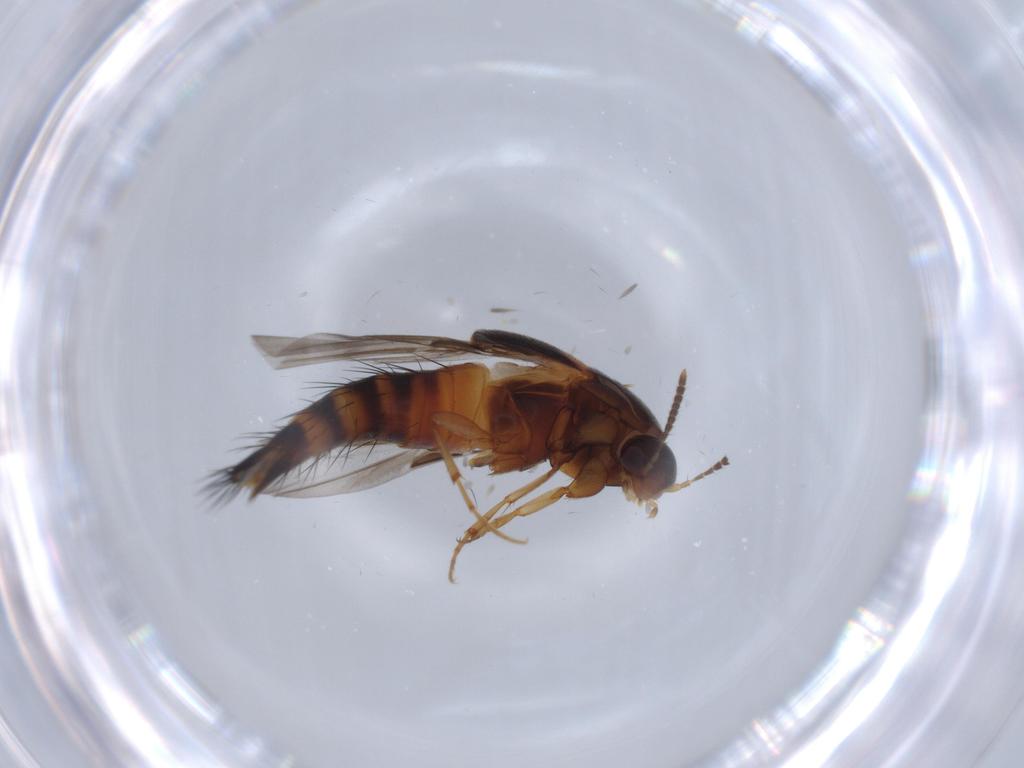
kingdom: Animalia
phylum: Arthropoda
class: Insecta
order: Coleoptera
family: Staphylinidae
